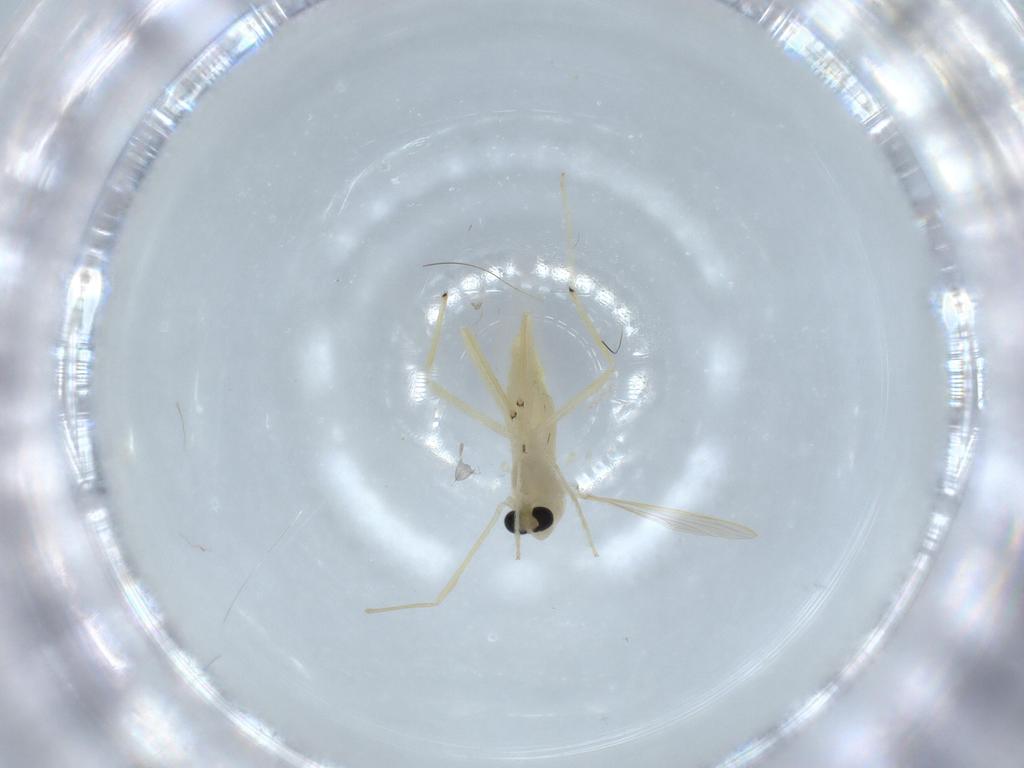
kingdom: Animalia
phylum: Arthropoda
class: Insecta
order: Diptera
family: Chironomidae
